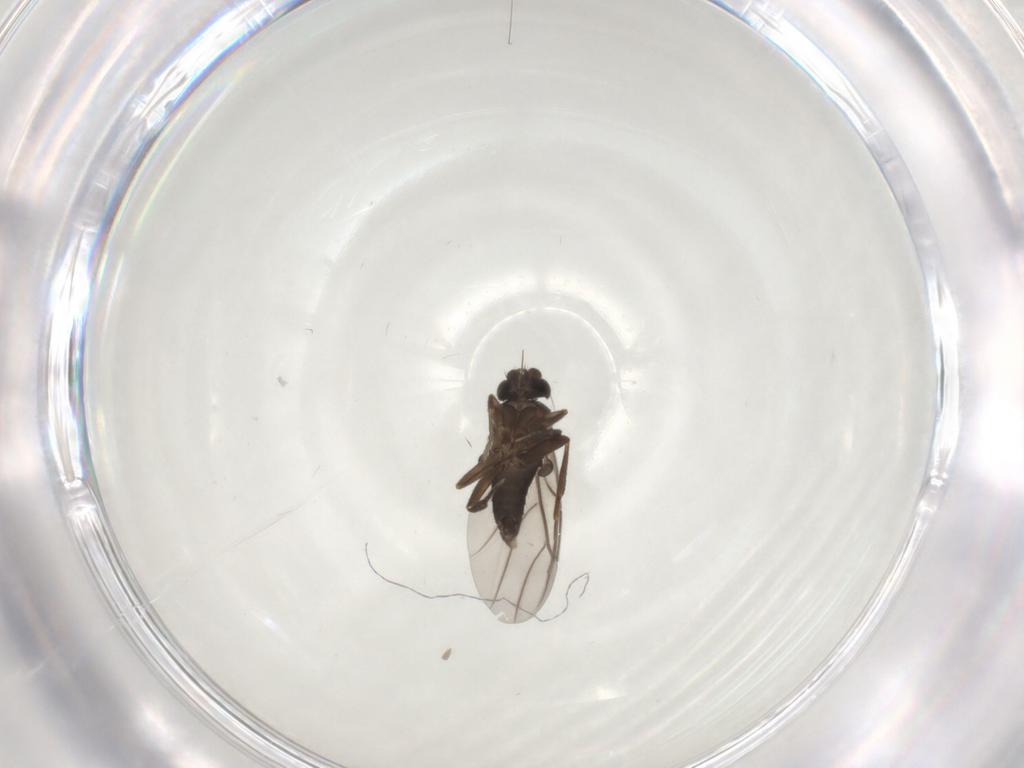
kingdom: Animalia
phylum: Arthropoda
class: Insecta
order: Diptera
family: Phoridae
